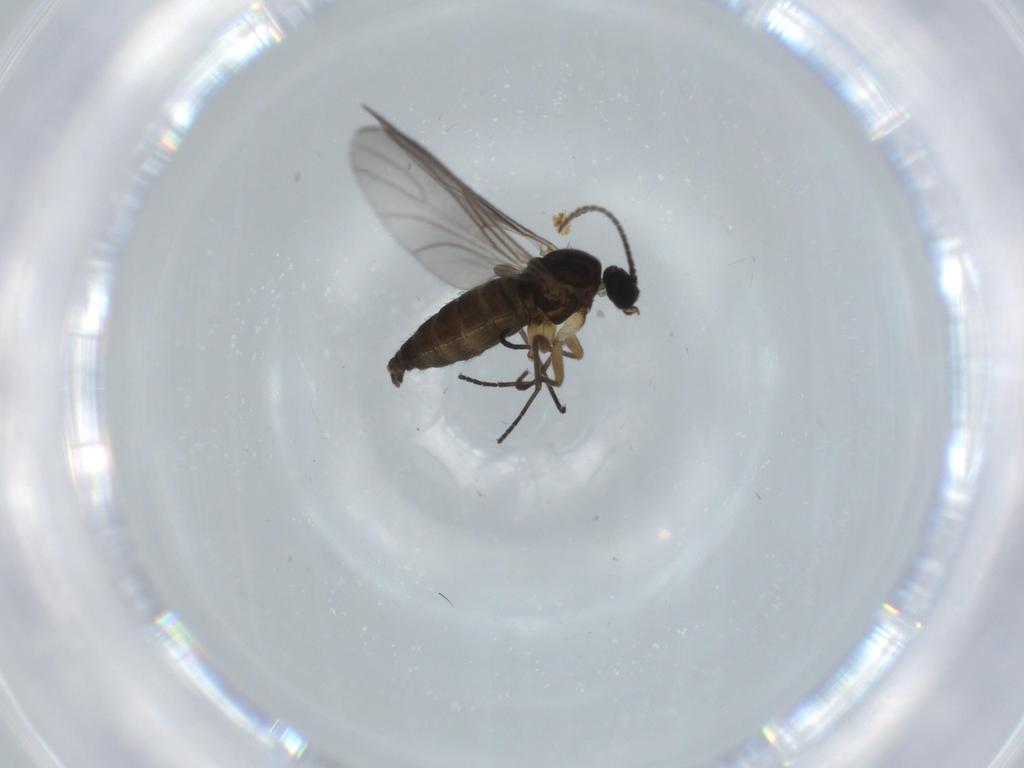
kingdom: Animalia
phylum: Arthropoda
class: Insecta
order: Diptera
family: Sciaridae
